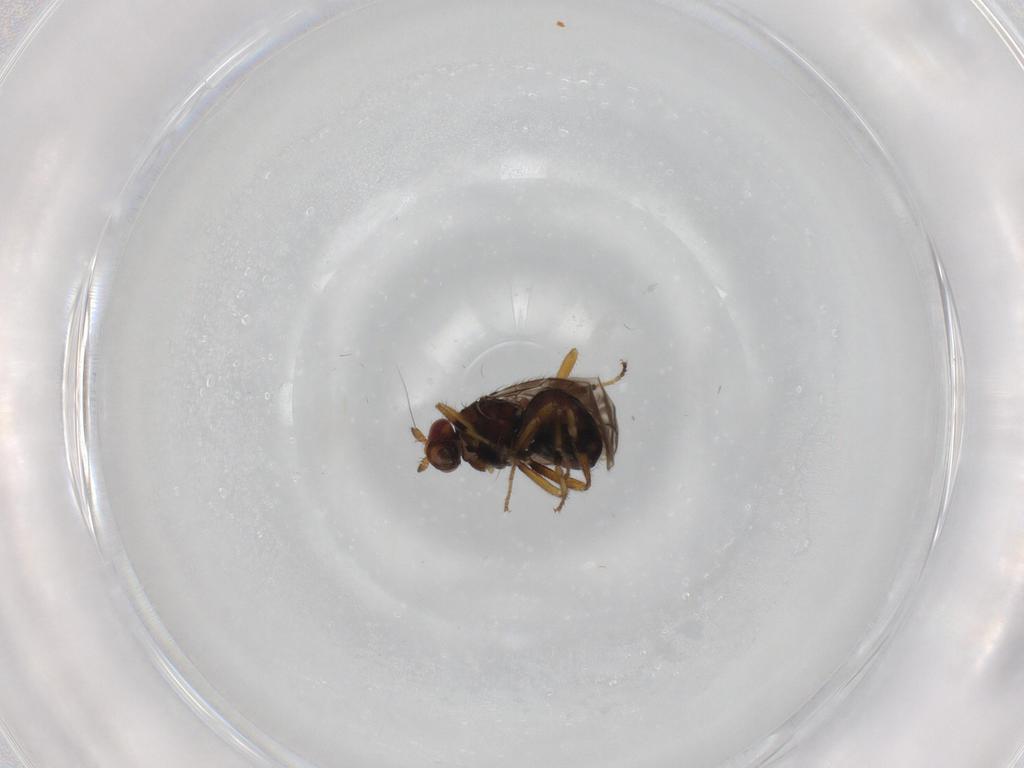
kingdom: Animalia
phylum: Arthropoda
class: Insecta
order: Diptera
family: Sphaeroceridae
